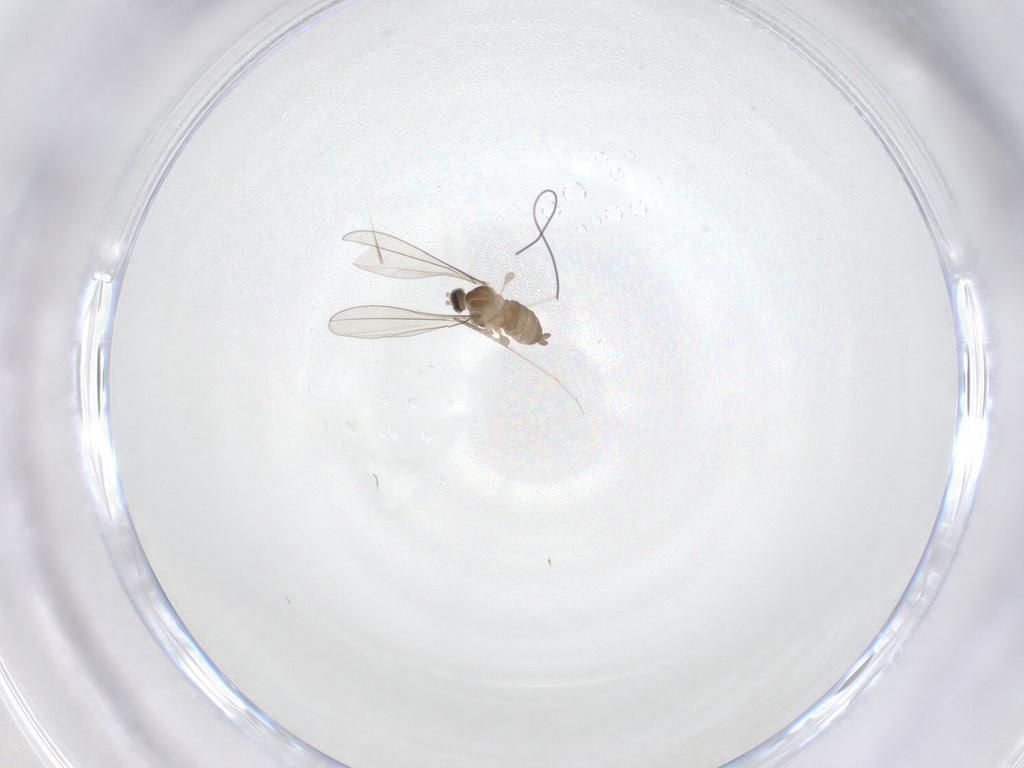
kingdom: Animalia
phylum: Arthropoda
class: Insecta
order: Diptera
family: Cecidomyiidae
